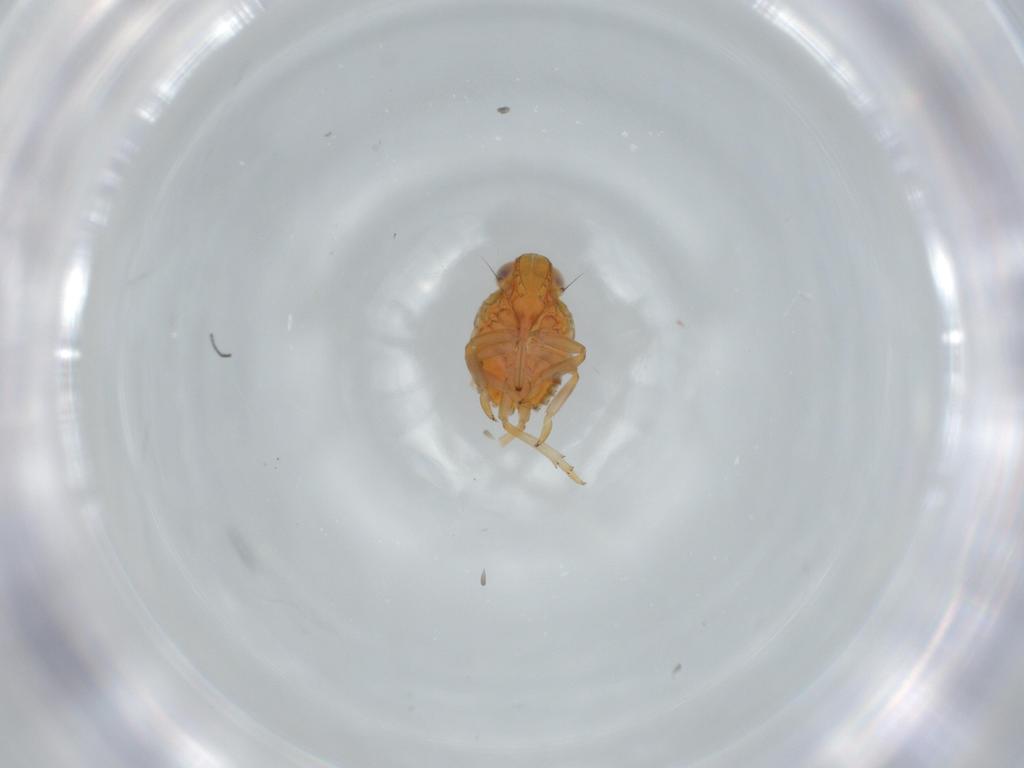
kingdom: Animalia
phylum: Arthropoda
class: Insecta
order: Hemiptera
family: Issidae
